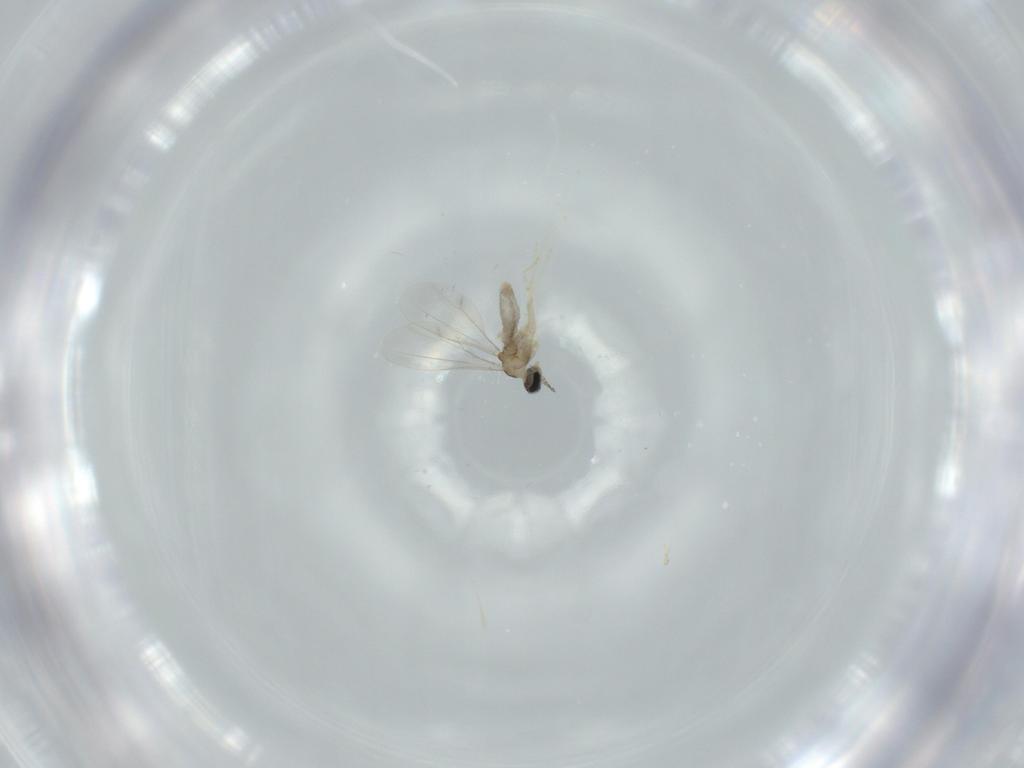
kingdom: Animalia
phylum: Arthropoda
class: Insecta
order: Diptera
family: Cecidomyiidae
